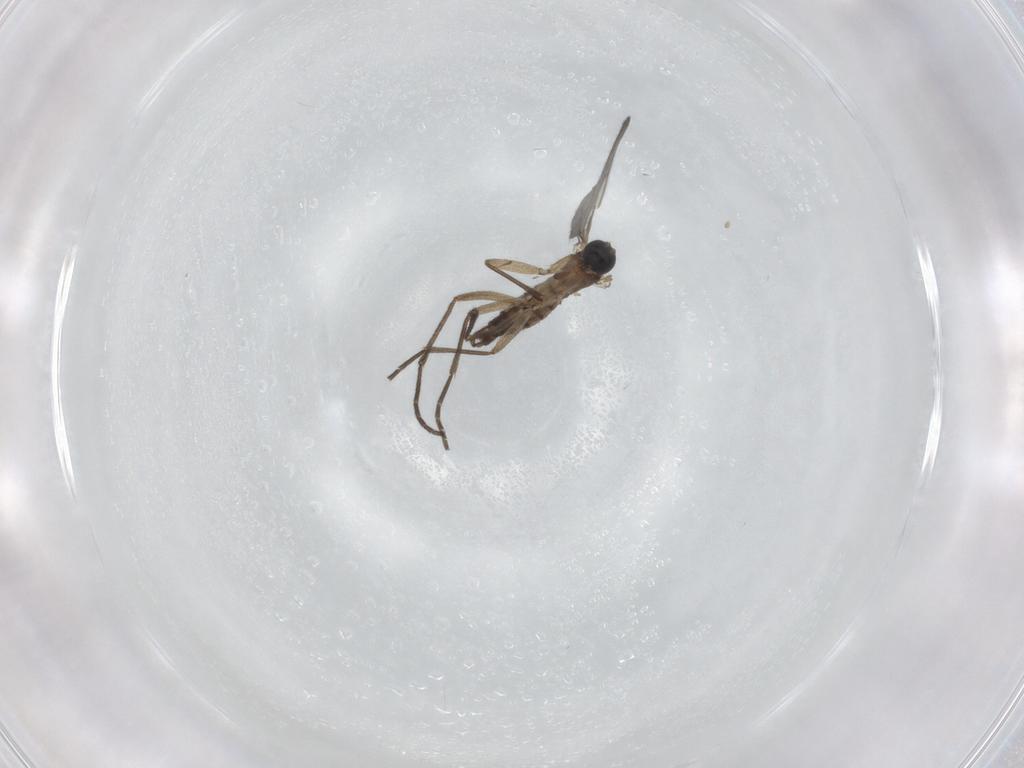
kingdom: Animalia
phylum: Arthropoda
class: Insecta
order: Diptera
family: Sciaridae
